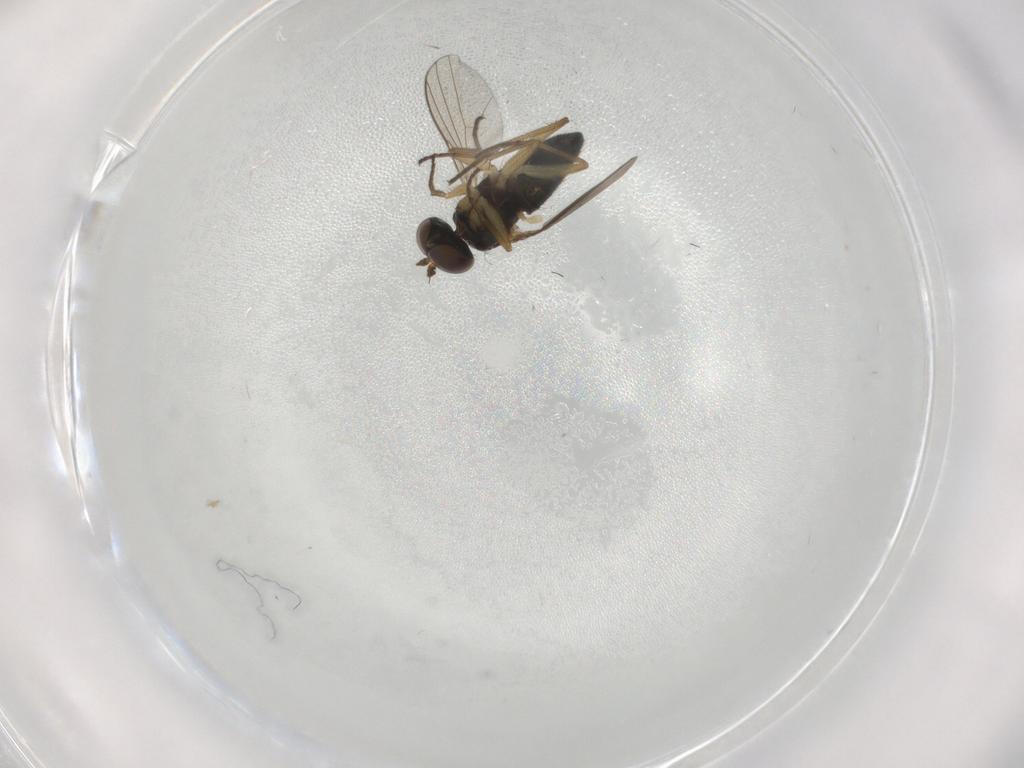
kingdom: Animalia
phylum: Arthropoda
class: Insecta
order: Diptera
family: Dolichopodidae
